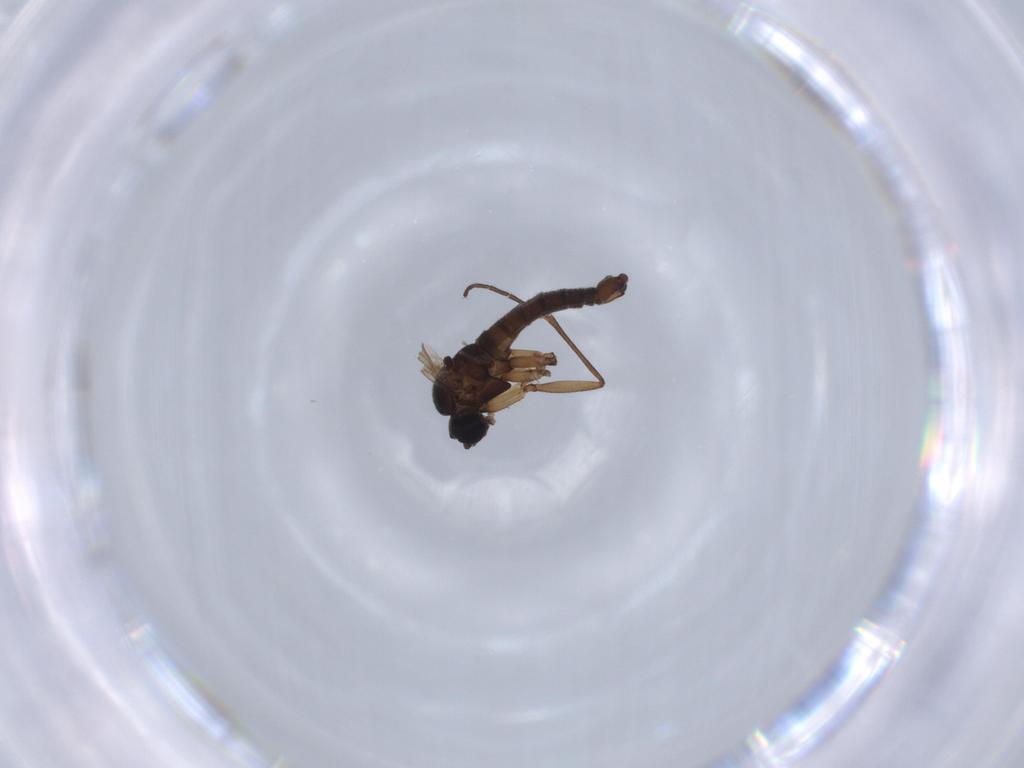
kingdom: Animalia
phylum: Arthropoda
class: Insecta
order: Diptera
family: Sciaridae
